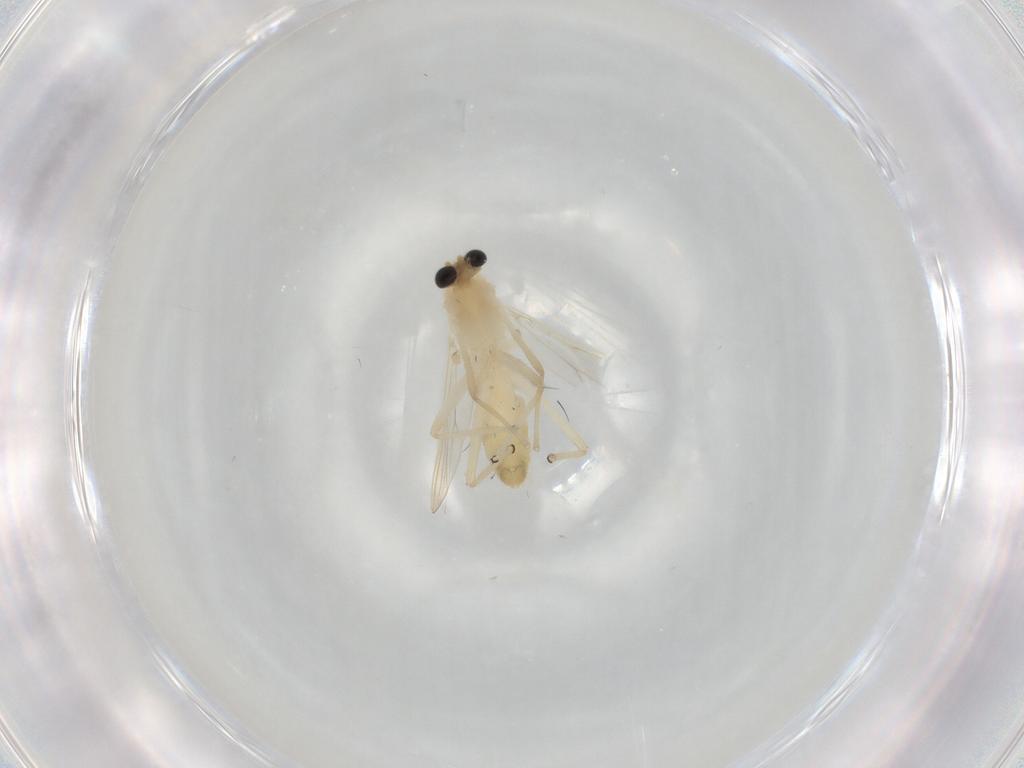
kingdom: Animalia
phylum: Arthropoda
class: Insecta
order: Diptera
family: Chironomidae
